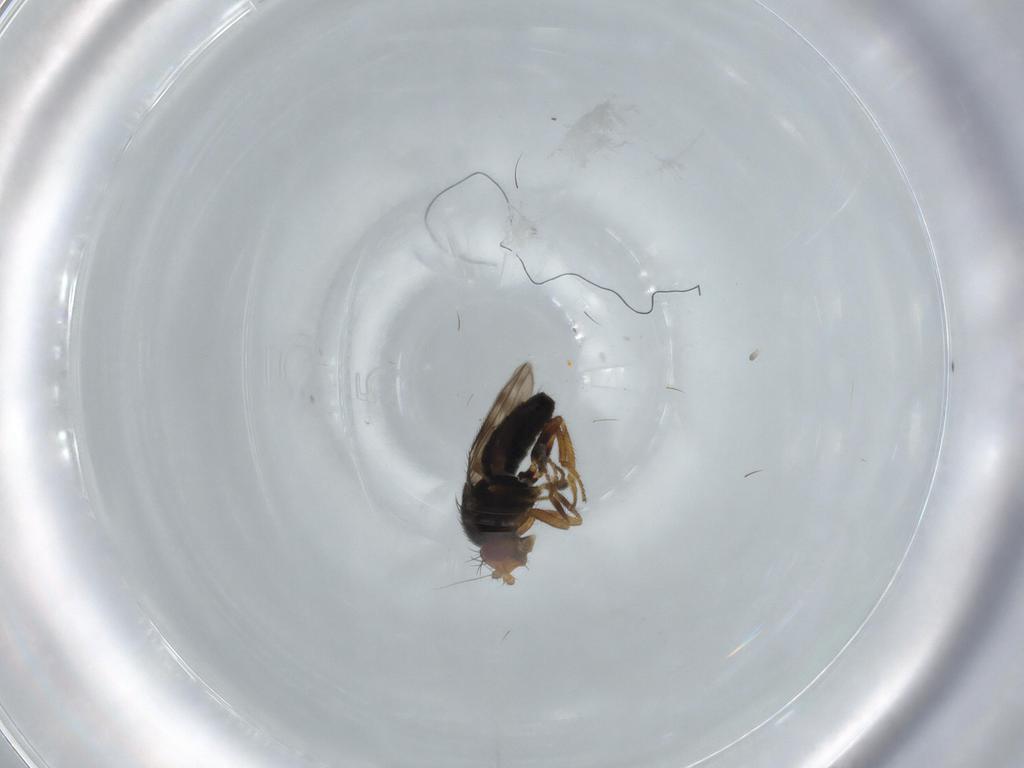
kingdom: Animalia
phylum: Arthropoda
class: Insecta
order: Diptera
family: Sphaeroceridae
